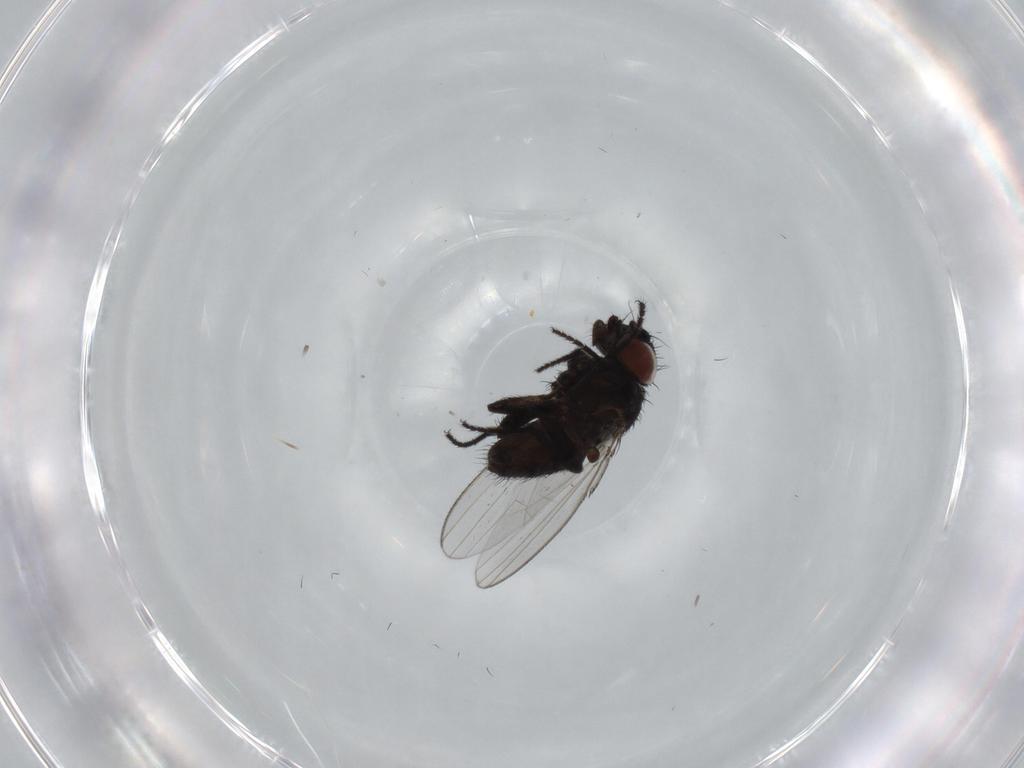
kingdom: Animalia
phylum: Arthropoda
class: Insecta
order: Diptera
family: Milichiidae
